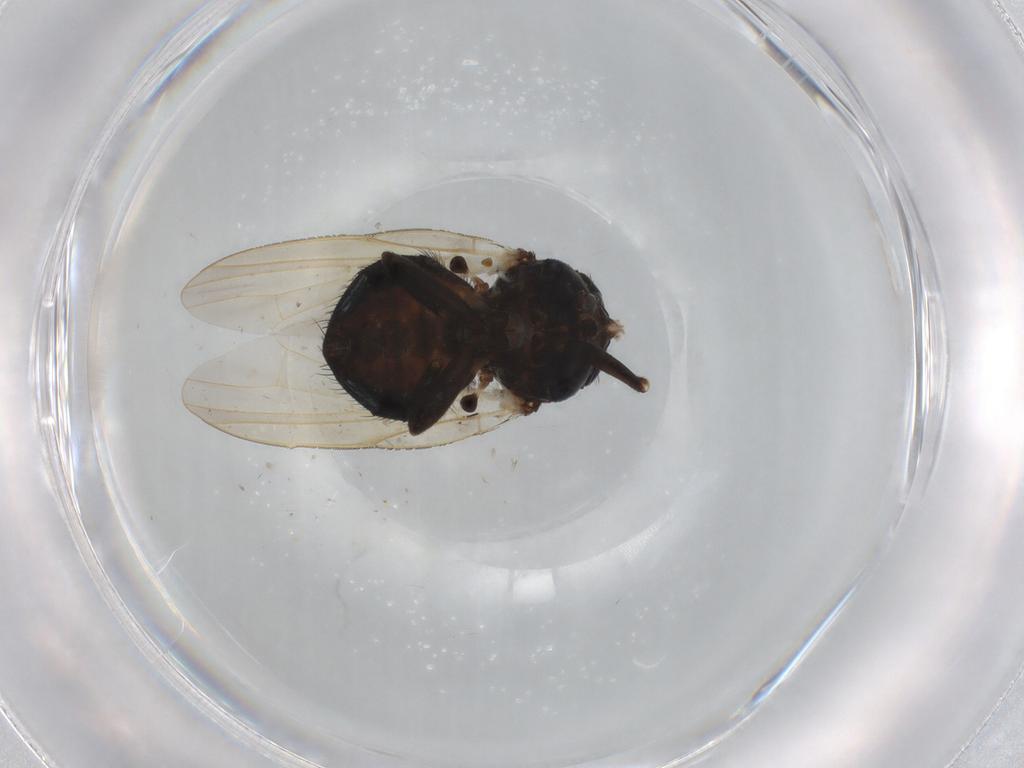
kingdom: Animalia
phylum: Arthropoda
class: Insecta
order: Diptera
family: Lonchaeidae
